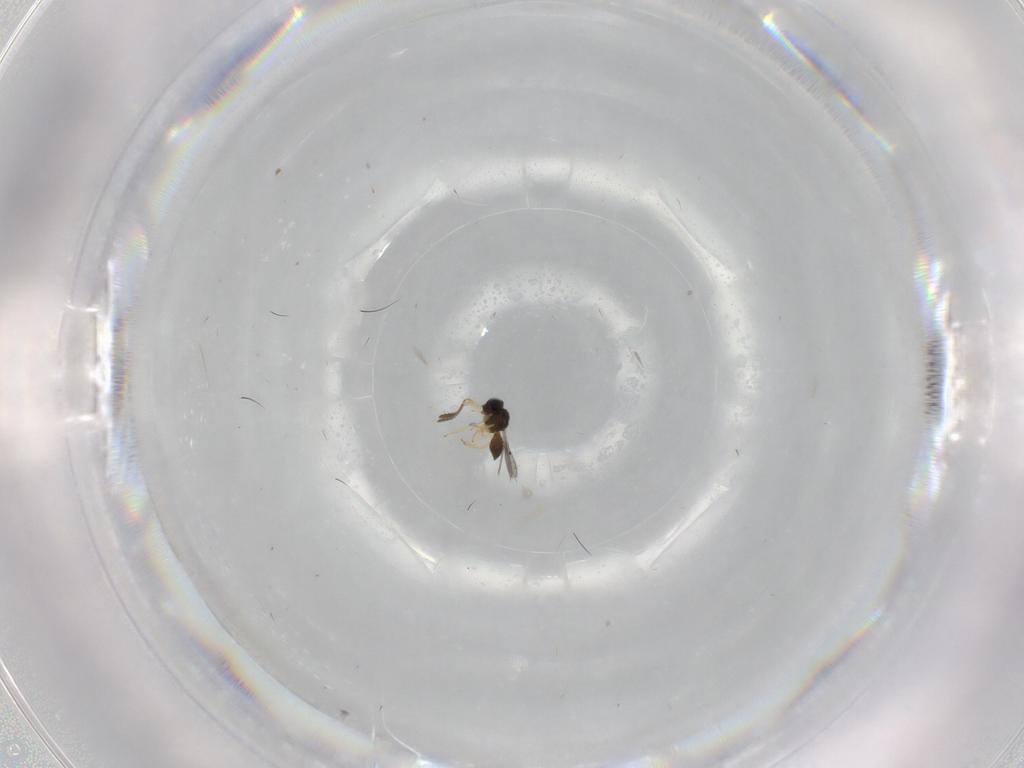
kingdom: Animalia
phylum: Arthropoda
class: Insecta
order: Hymenoptera
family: Scelionidae
